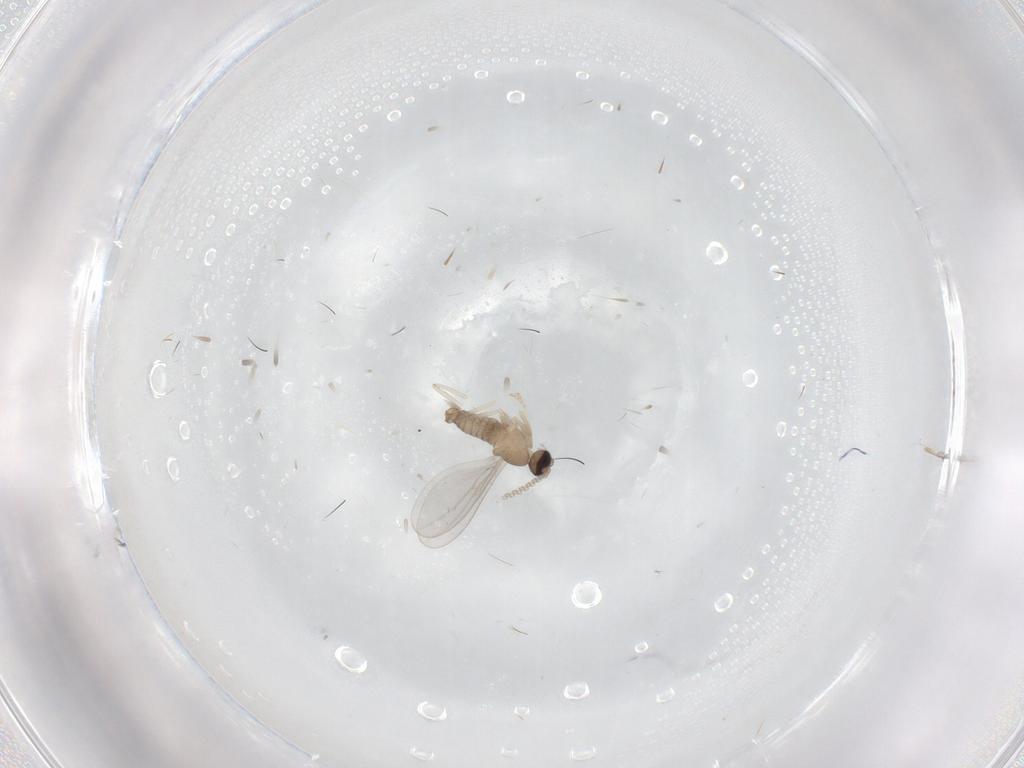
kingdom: Animalia
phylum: Arthropoda
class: Insecta
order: Diptera
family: Cecidomyiidae
